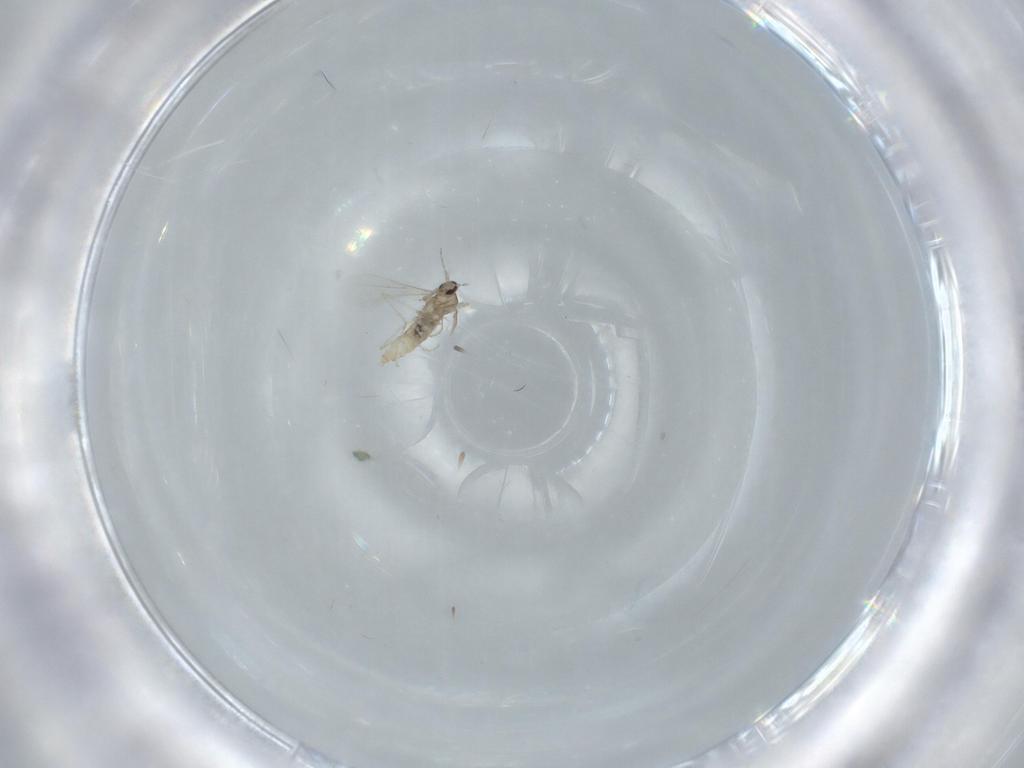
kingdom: Animalia
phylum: Arthropoda
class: Insecta
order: Diptera
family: Cecidomyiidae
